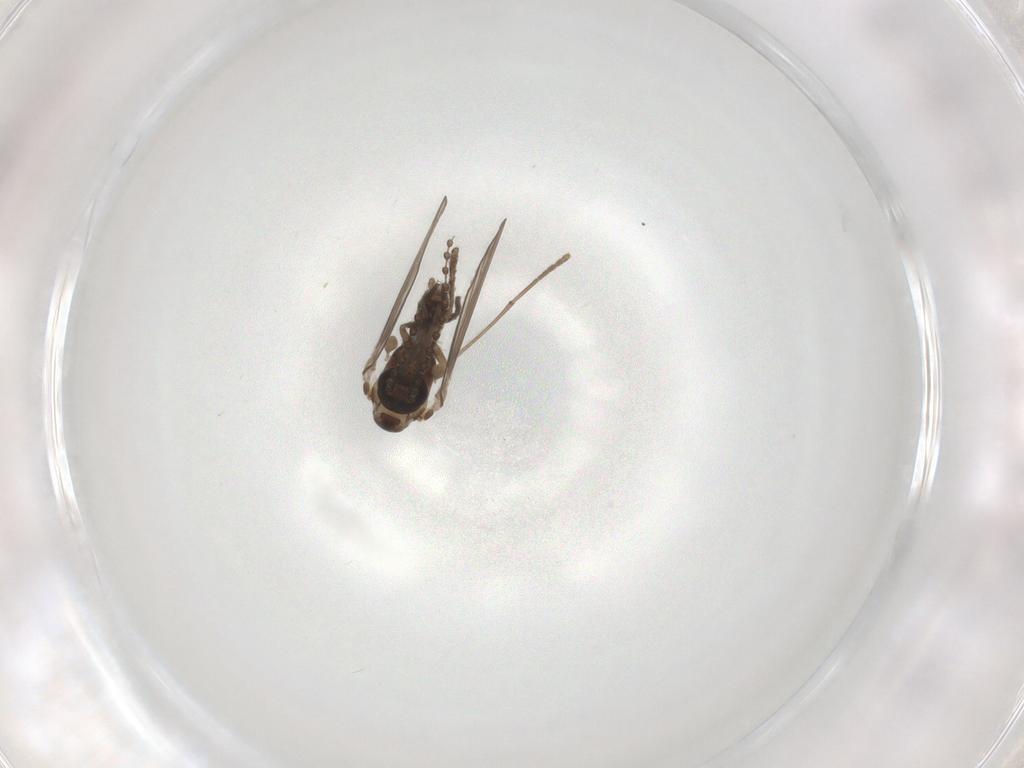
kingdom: Animalia
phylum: Arthropoda
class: Insecta
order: Diptera
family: Psychodidae
